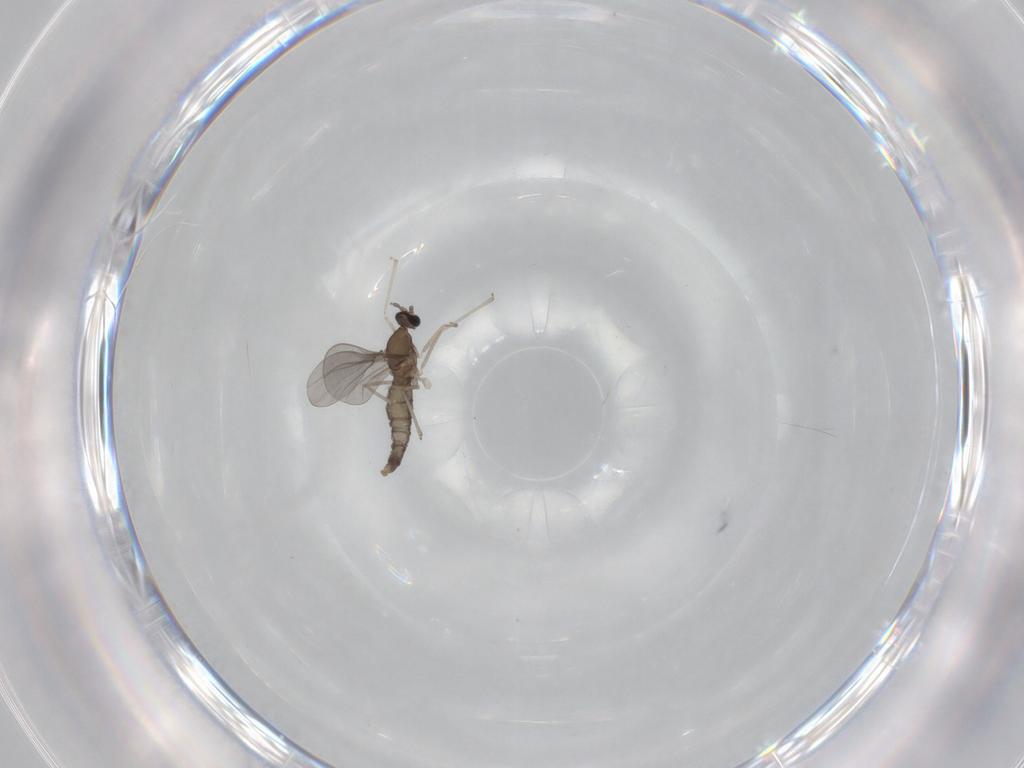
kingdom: Animalia
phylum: Arthropoda
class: Insecta
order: Diptera
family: Cecidomyiidae
